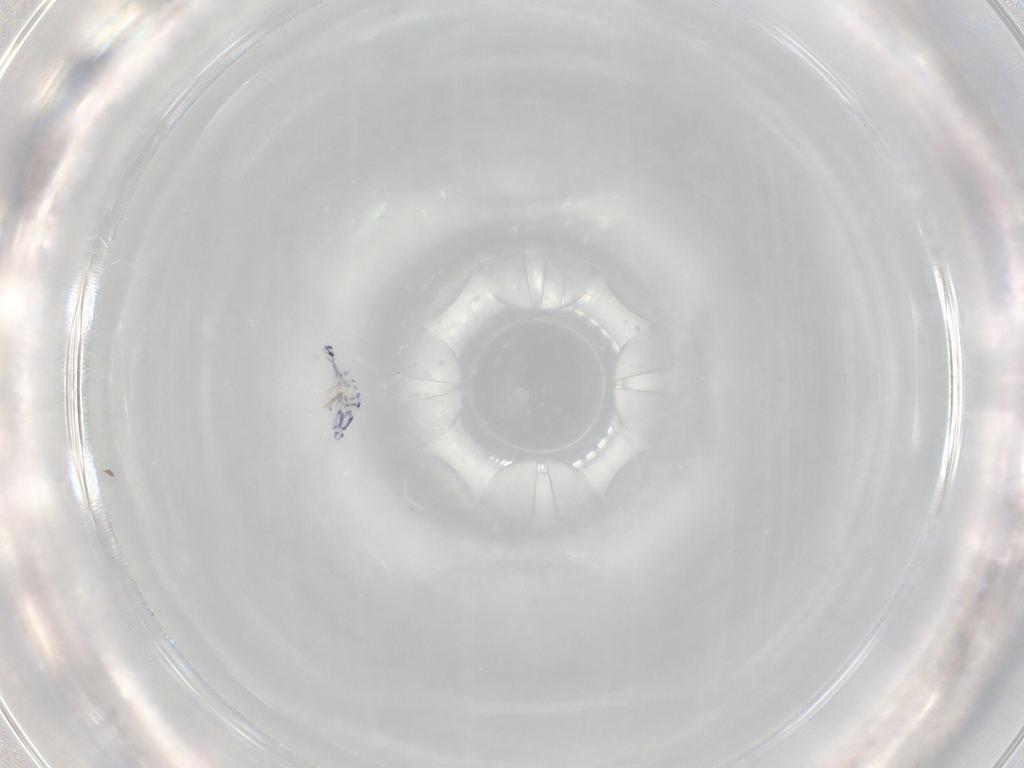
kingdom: Animalia
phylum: Arthropoda
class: Collembola
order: Entomobryomorpha
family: Entomobryidae
